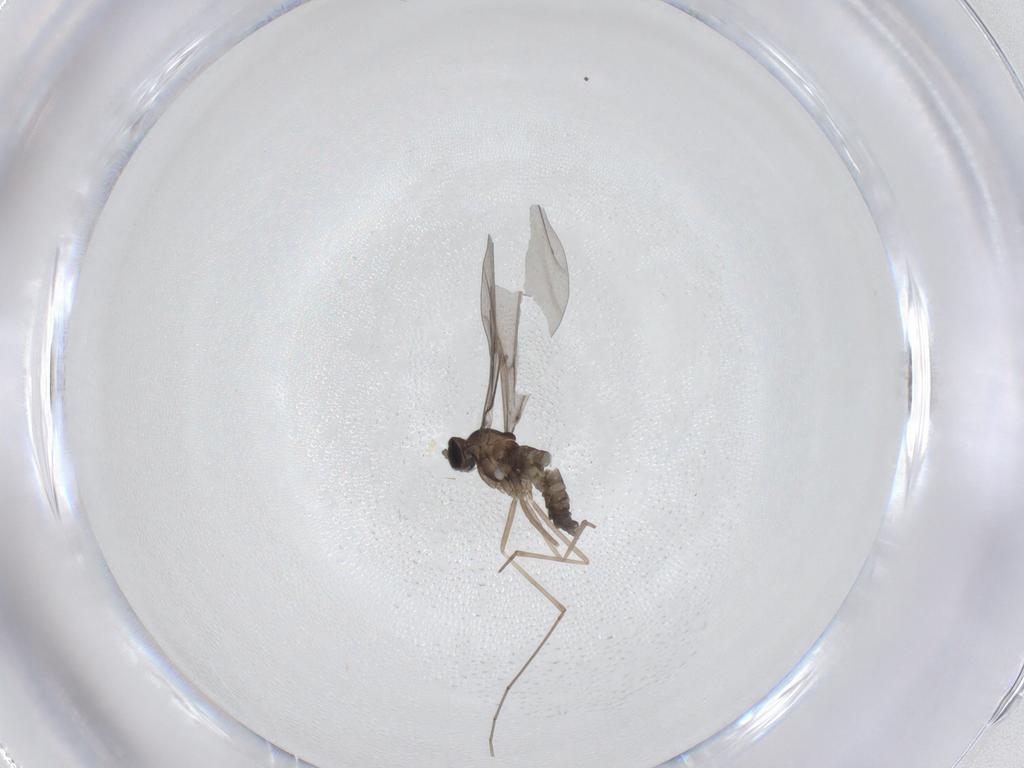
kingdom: Animalia
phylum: Arthropoda
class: Insecta
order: Diptera
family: Cecidomyiidae
